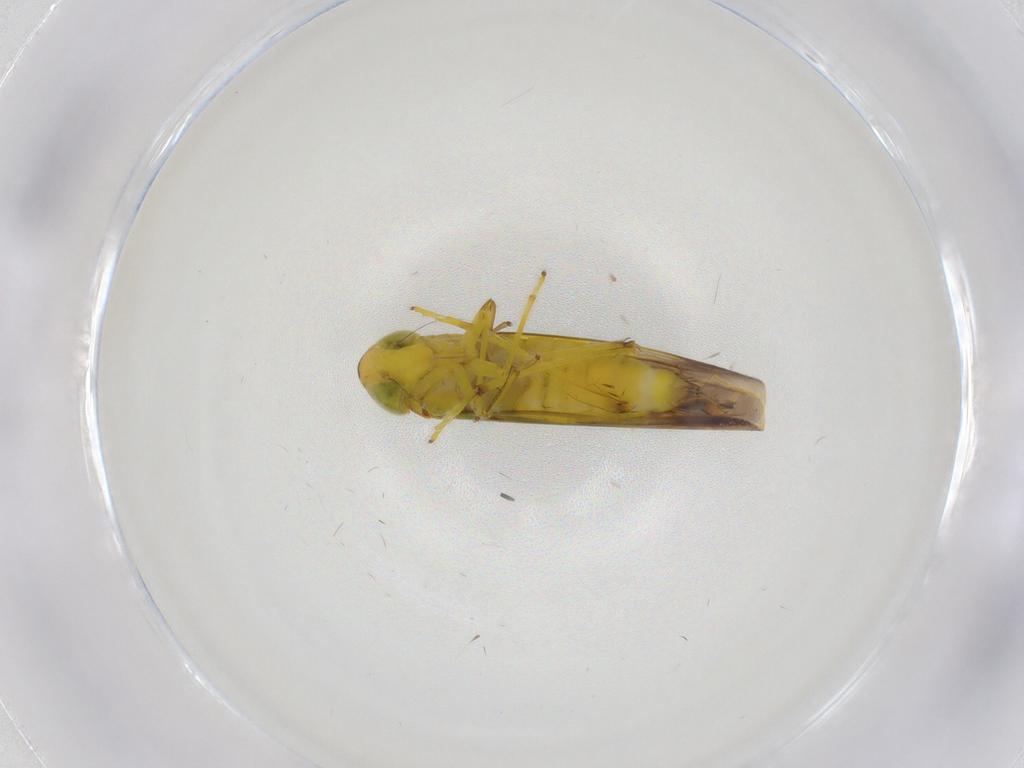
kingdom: Animalia
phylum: Arthropoda
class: Insecta
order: Hemiptera
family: Cicadellidae
